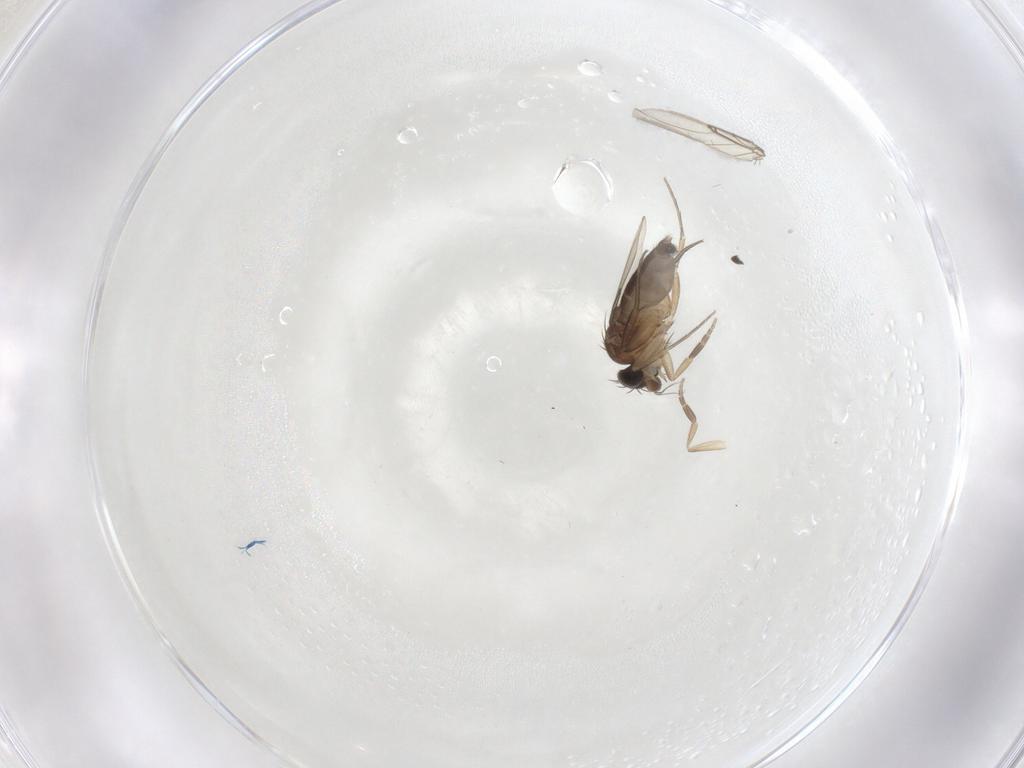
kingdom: Animalia
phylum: Arthropoda
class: Insecta
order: Diptera
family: Phoridae
